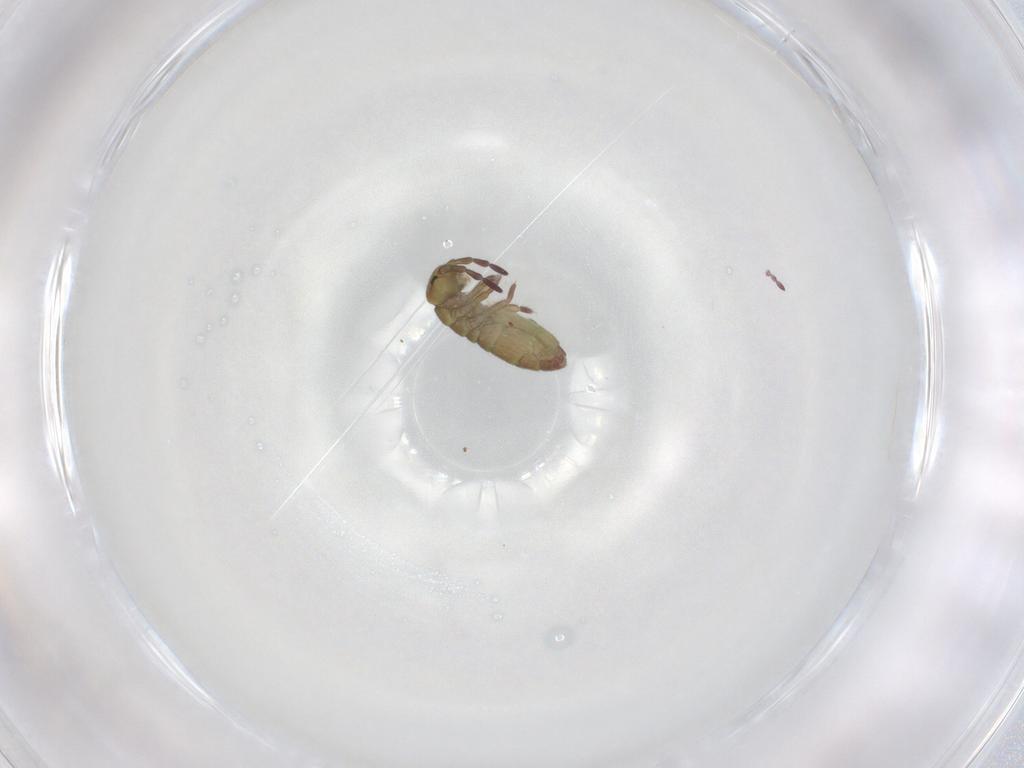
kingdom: Animalia
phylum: Arthropoda
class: Collembola
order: Entomobryomorpha
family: Isotomidae
